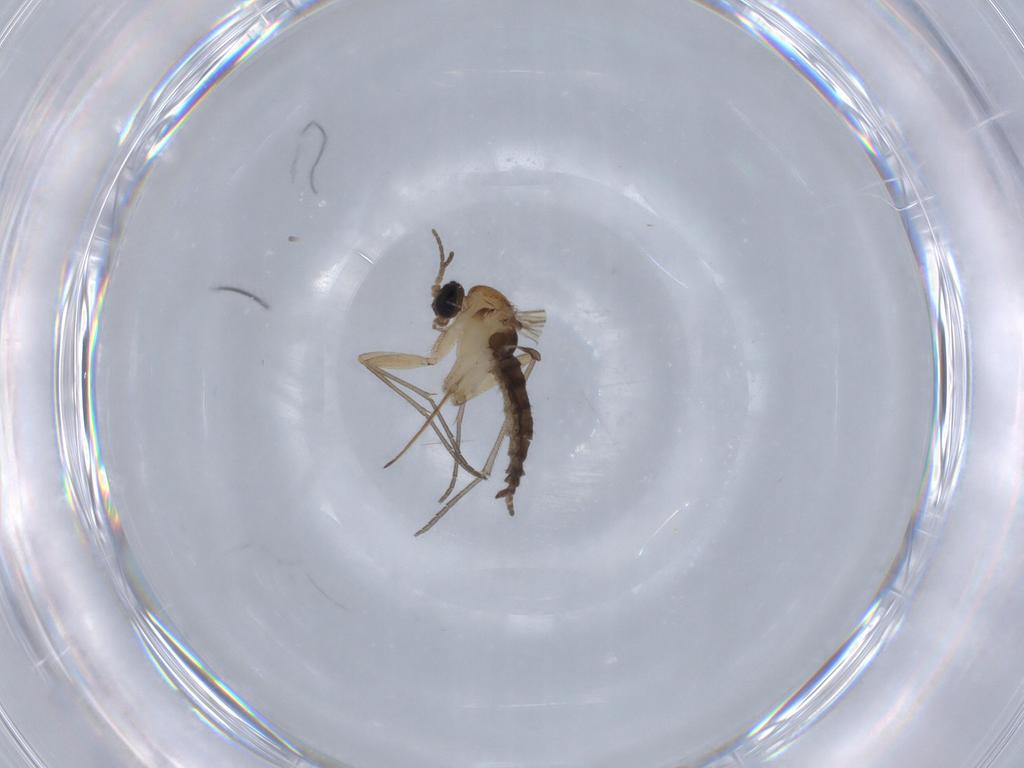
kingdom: Animalia
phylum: Arthropoda
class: Insecta
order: Diptera
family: Sciaridae
